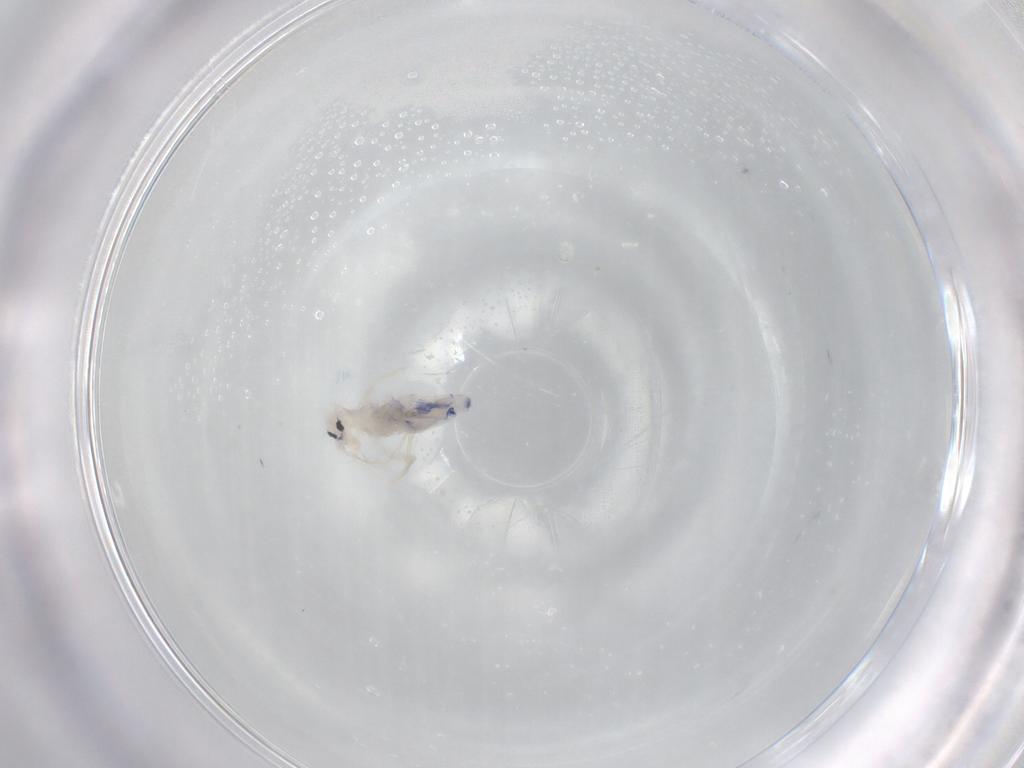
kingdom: Animalia
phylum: Arthropoda
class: Collembola
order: Entomobryomorpha
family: Entomobryidae
